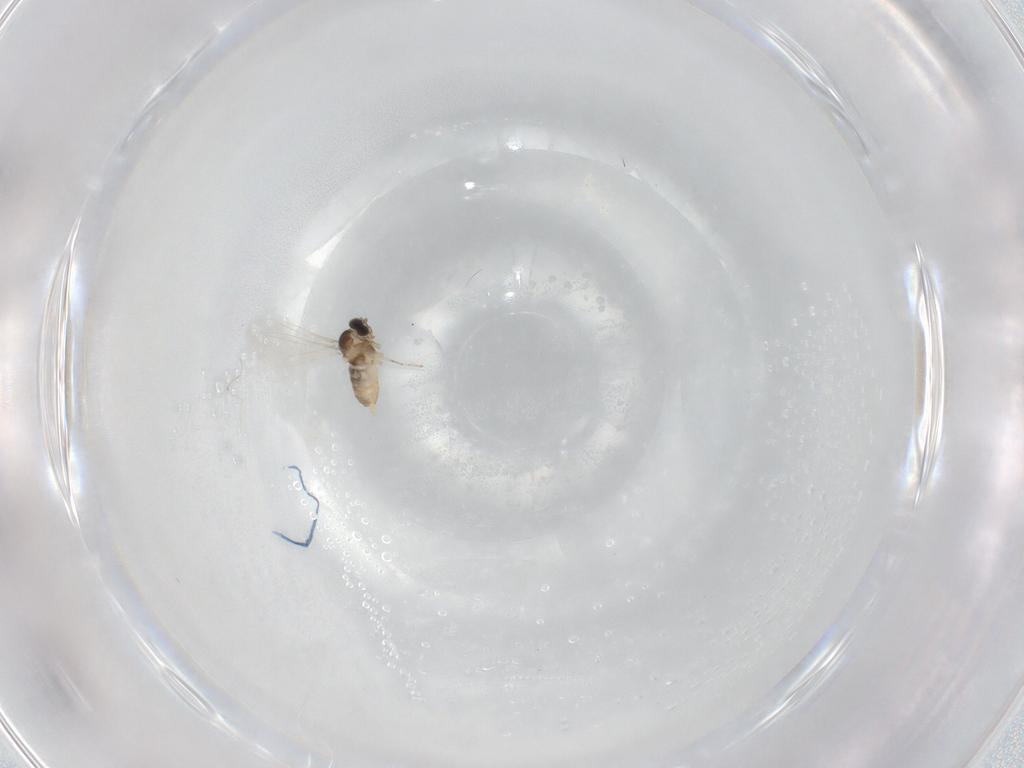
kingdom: Animalia
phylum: Arthropoda
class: Insecta
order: Diptera
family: Cecidomyiidae
